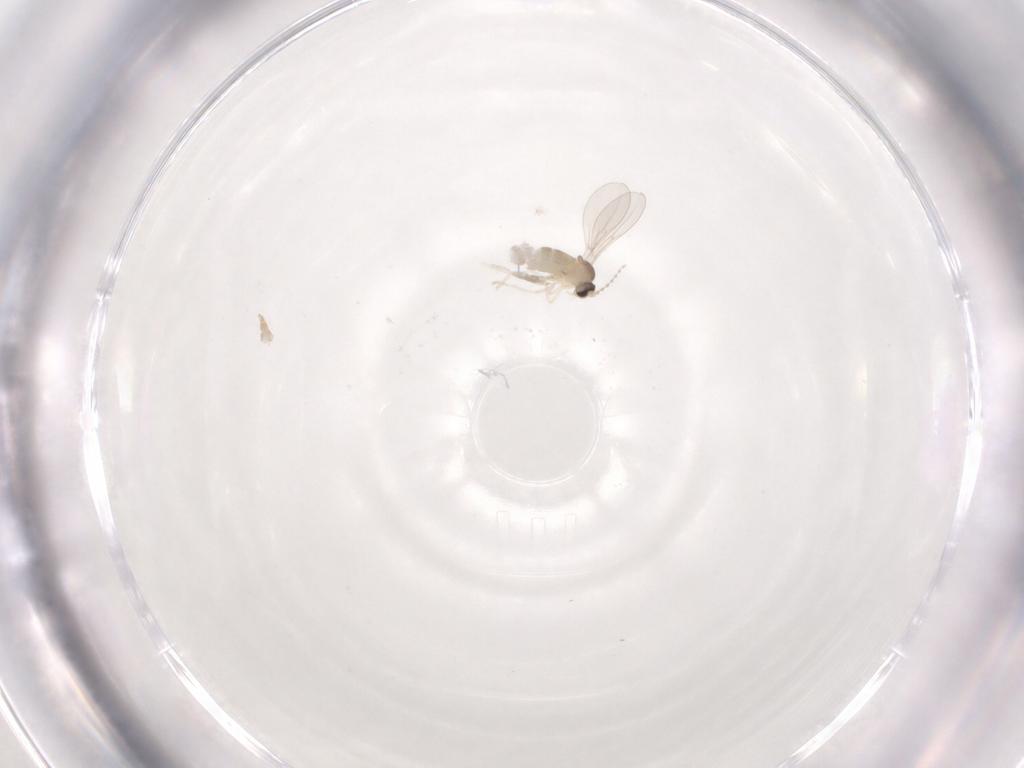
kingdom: Animalia
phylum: Arthropoda
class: Insecta
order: Diptera
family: Cecidomyiidae
